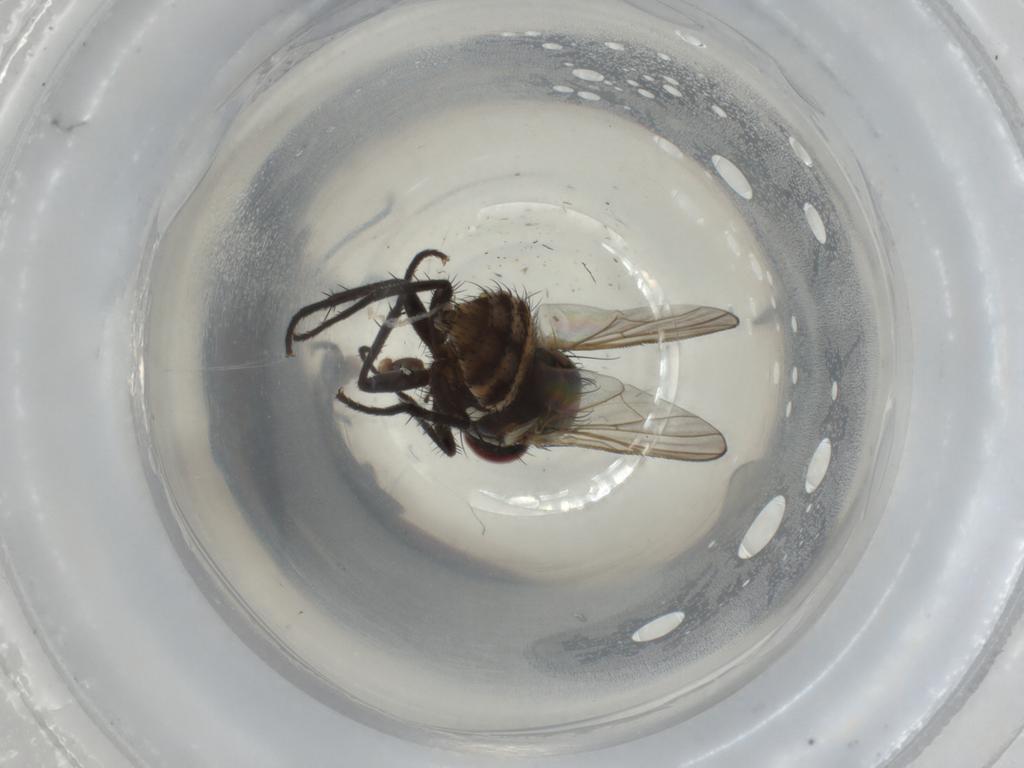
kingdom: Animalia
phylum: Arthropoda
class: Insecta
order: Diptera
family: Anthomyiidae
